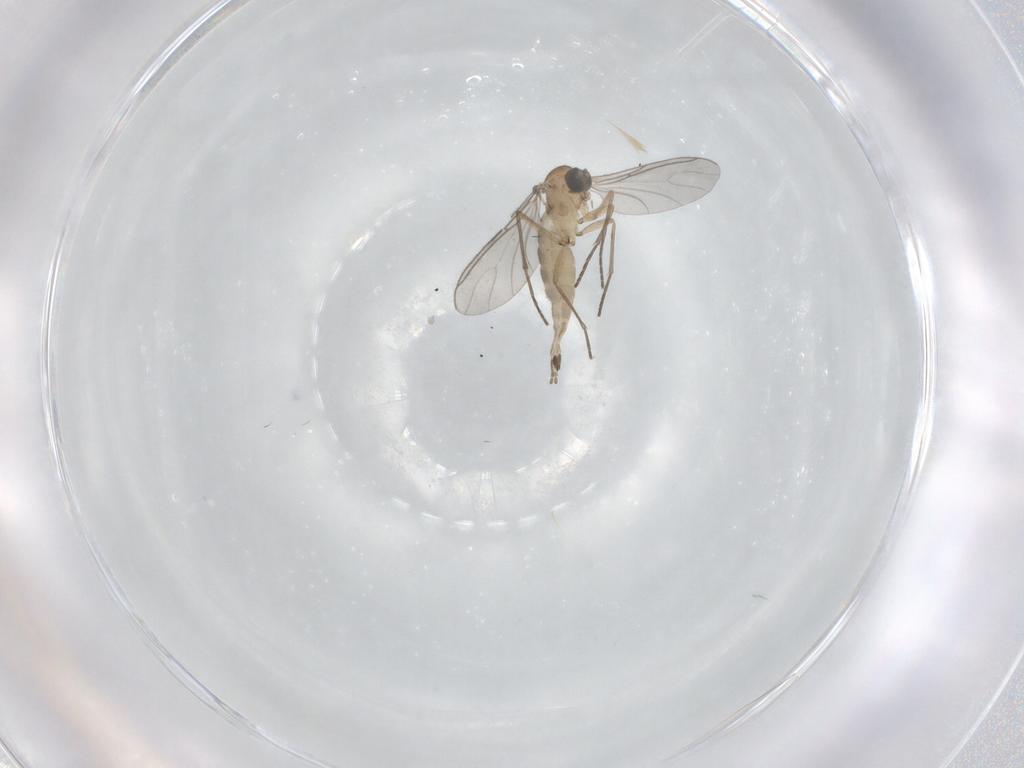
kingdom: Animalia
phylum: Arthropoda
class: Insecta
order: Diptera
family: Sciaridae
